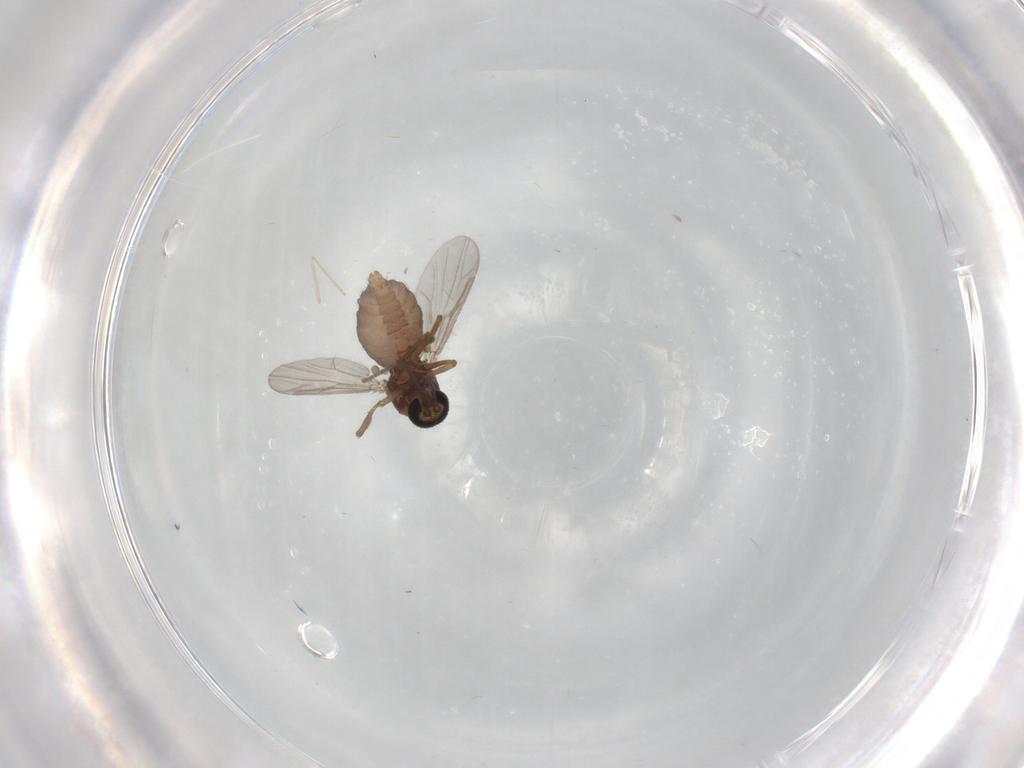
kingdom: Animalia
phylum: Arthropoda
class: Insecta
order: Diptera
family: Ceratopogonidae
